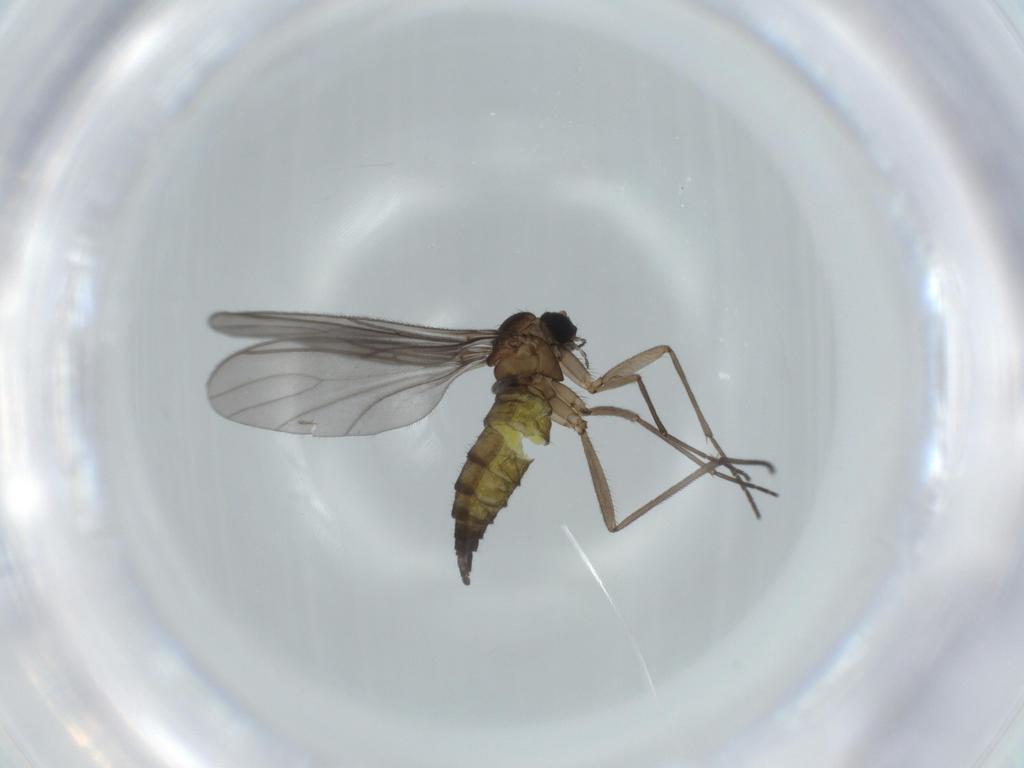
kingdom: Animalia
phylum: Arthropoda
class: Insecta
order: Diptera
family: Sciaridae
